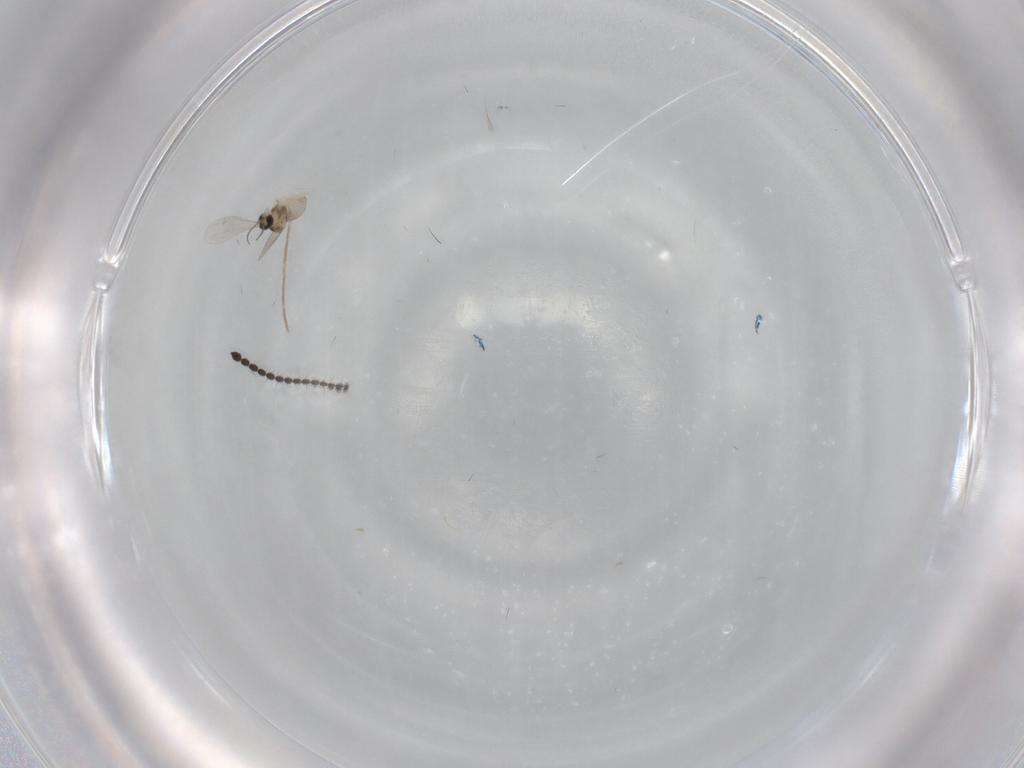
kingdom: Animalia
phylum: Arthropoda
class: Insecta
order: Diptera
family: Limoniidae
